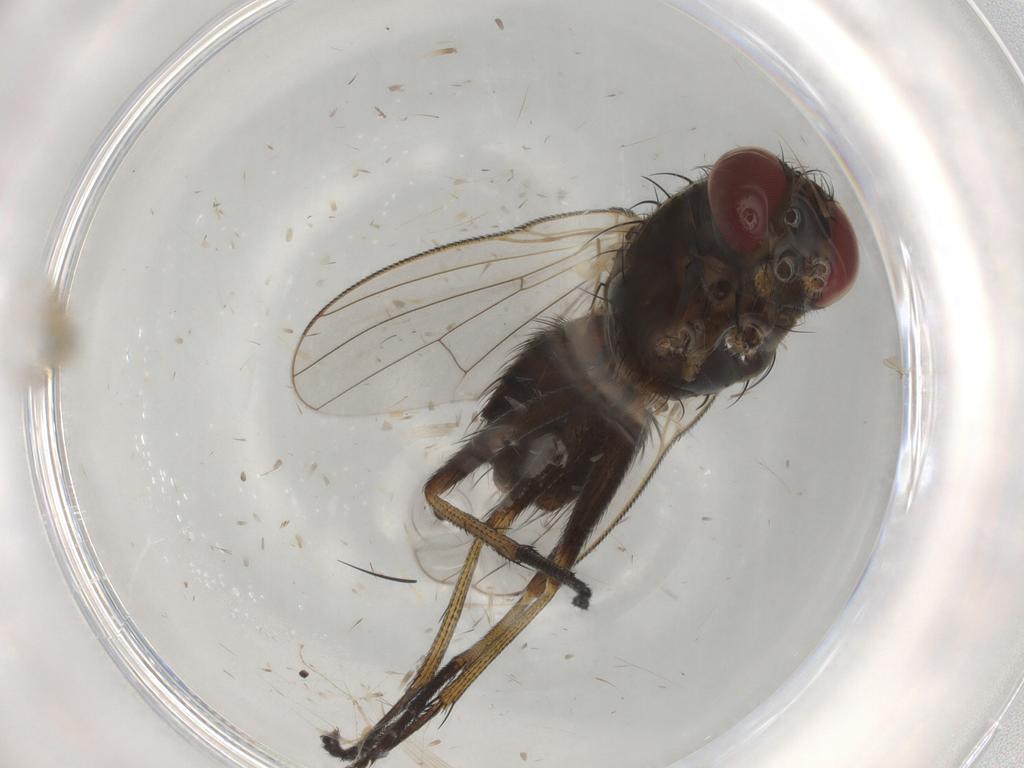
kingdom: Animalia
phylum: Arthropoda
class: Insecta
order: Diptera
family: Muscidae
